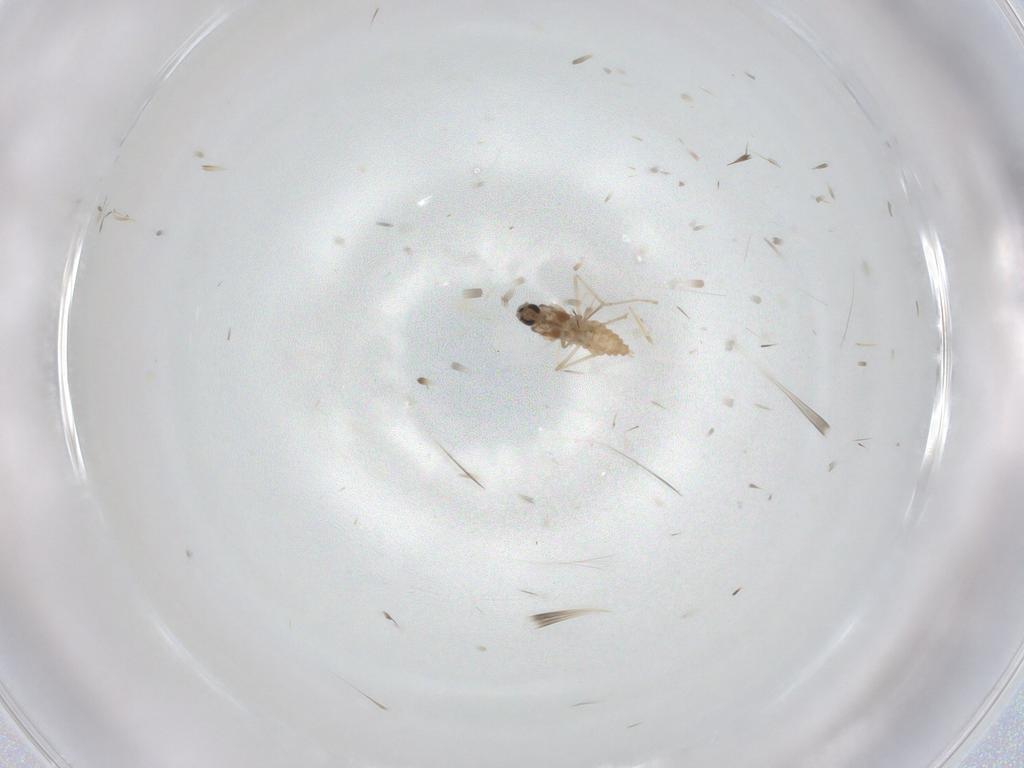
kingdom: Animalia
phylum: Arthropoda
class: Insecta
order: Diptera
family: Cecidomyiidae
